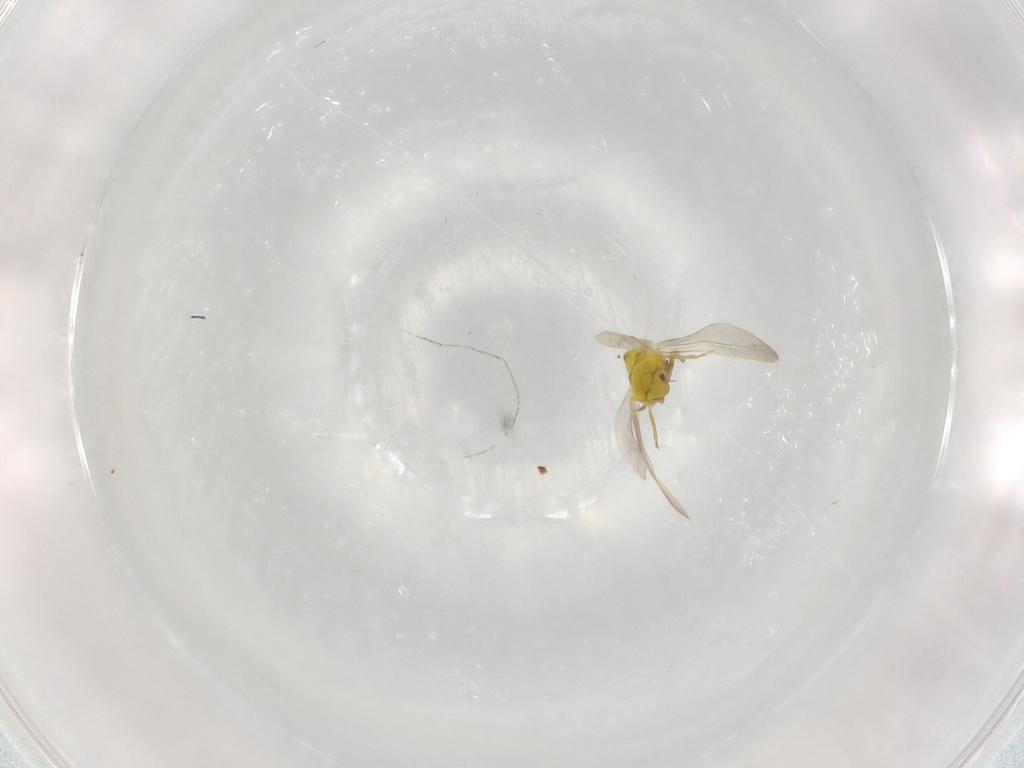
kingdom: Animalia
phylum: Arthropoda
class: Insecta
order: Hemiptera
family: Aleyrodidae
